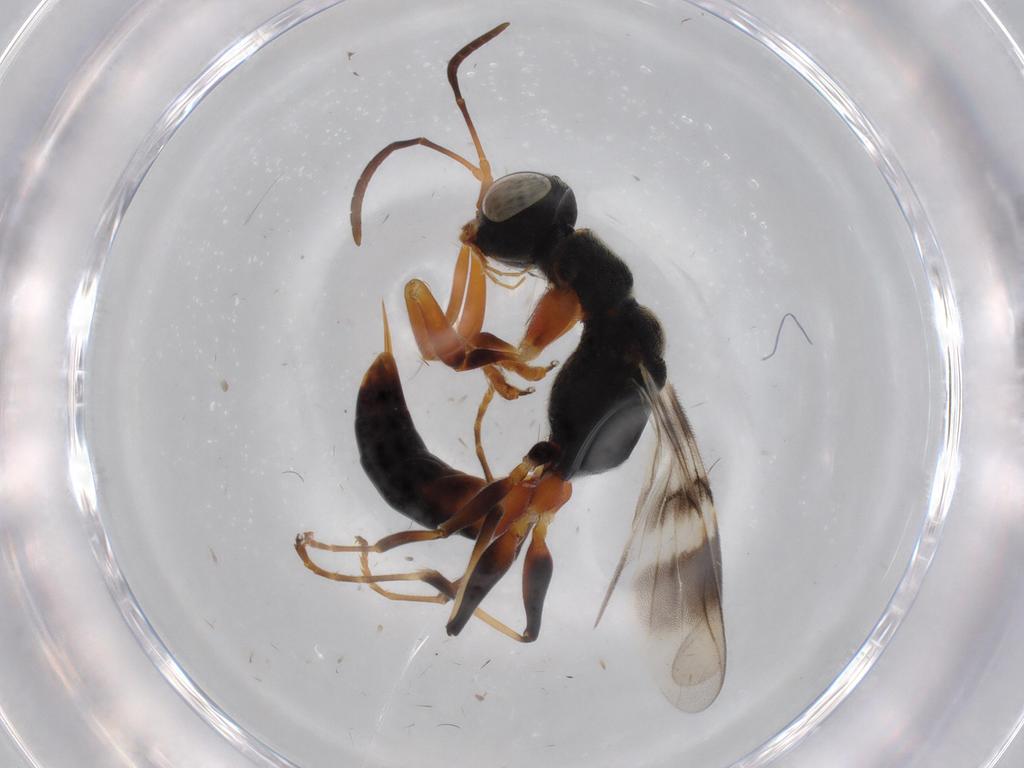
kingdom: Animalia
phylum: Arthropoda
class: Insecta
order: Hymenoptera
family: Dryinidae
